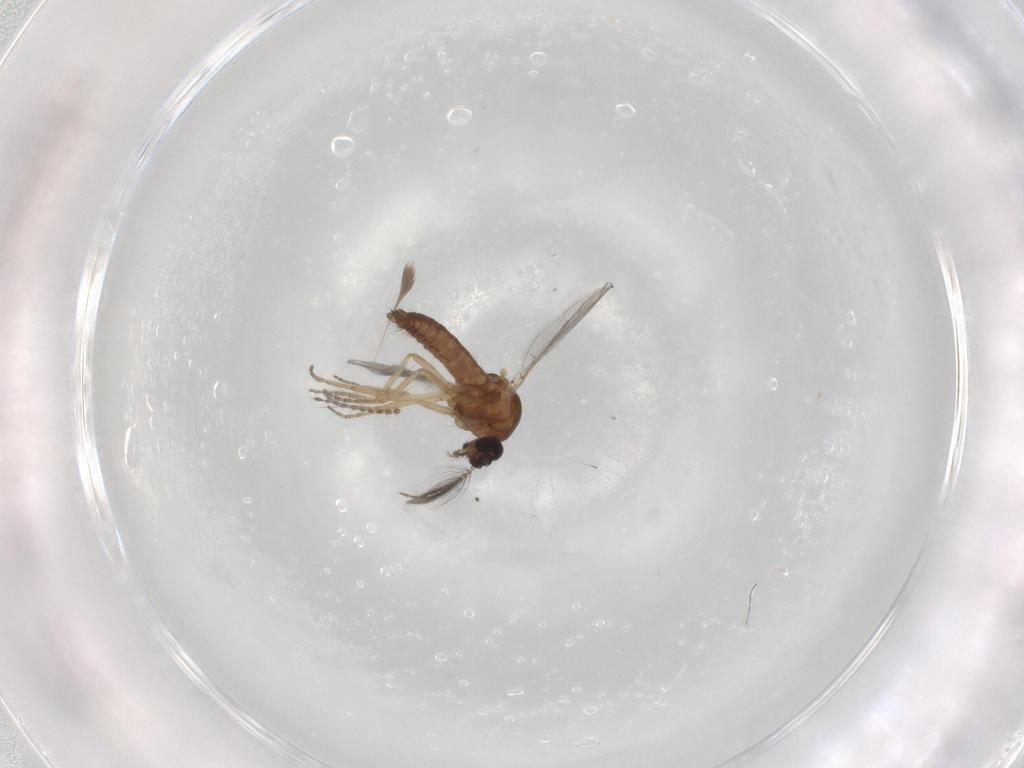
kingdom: Animalia
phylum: Arthropoda
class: Insecta
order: Diptera
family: Ceratopogonidae
